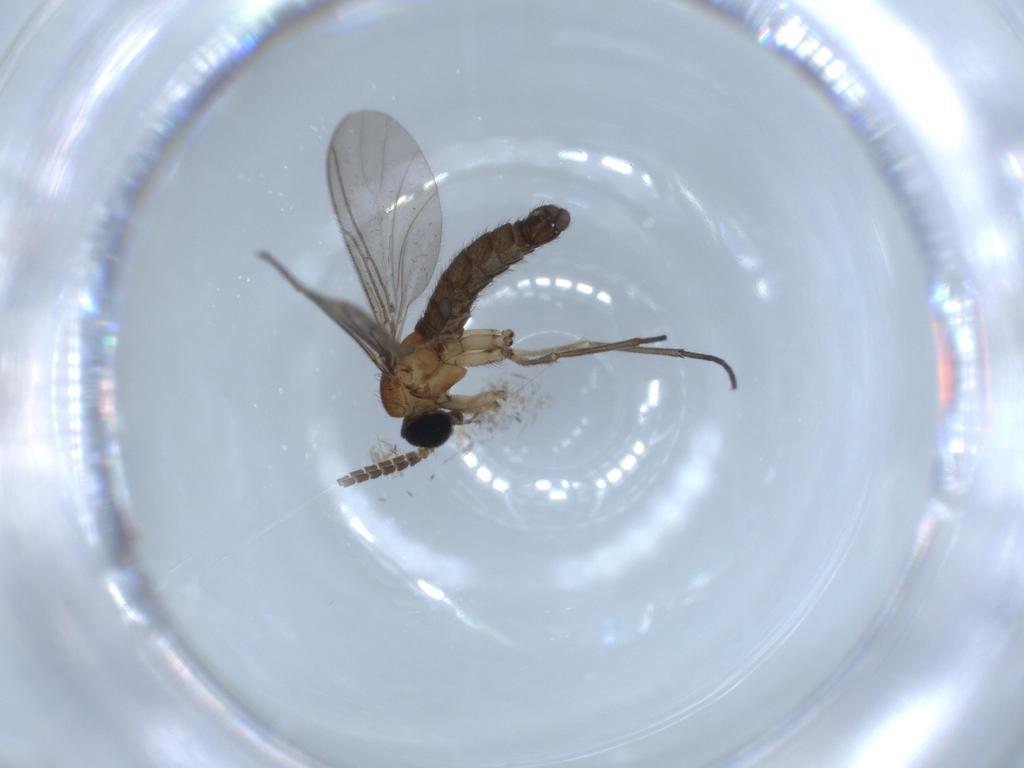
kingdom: Animalia
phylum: Arthropoda
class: Insecta
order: Diptera
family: Sciaridae
